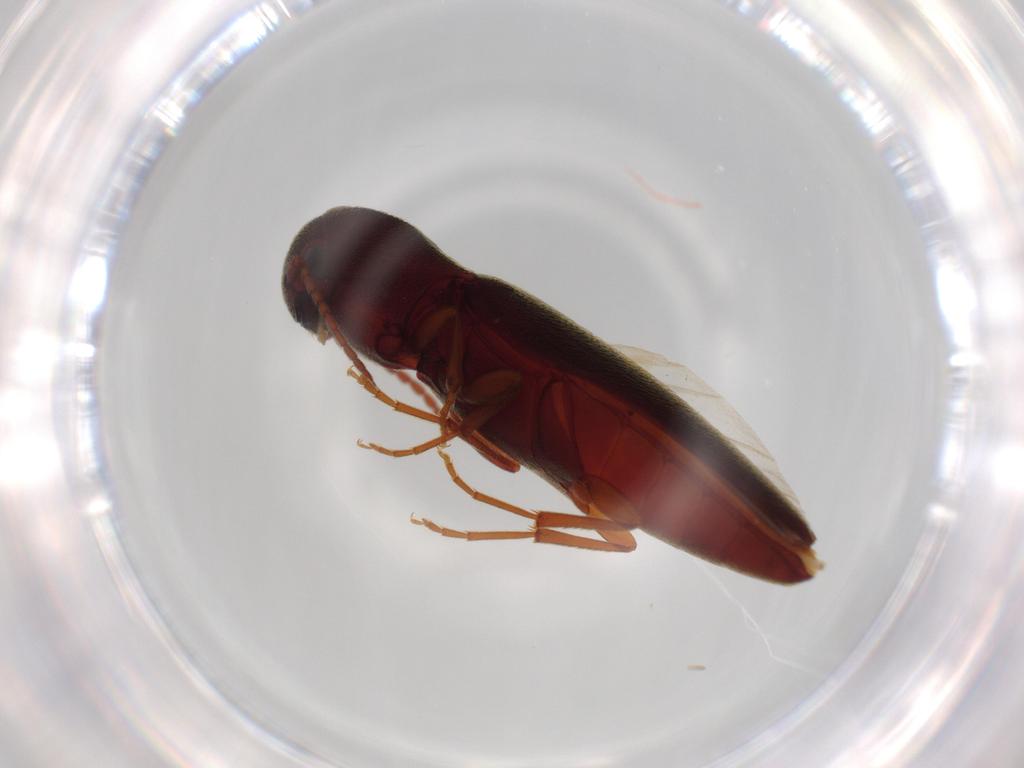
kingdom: Animalia
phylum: Arthropoda
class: Insecta
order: Coleoptera
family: Eucnemidae
